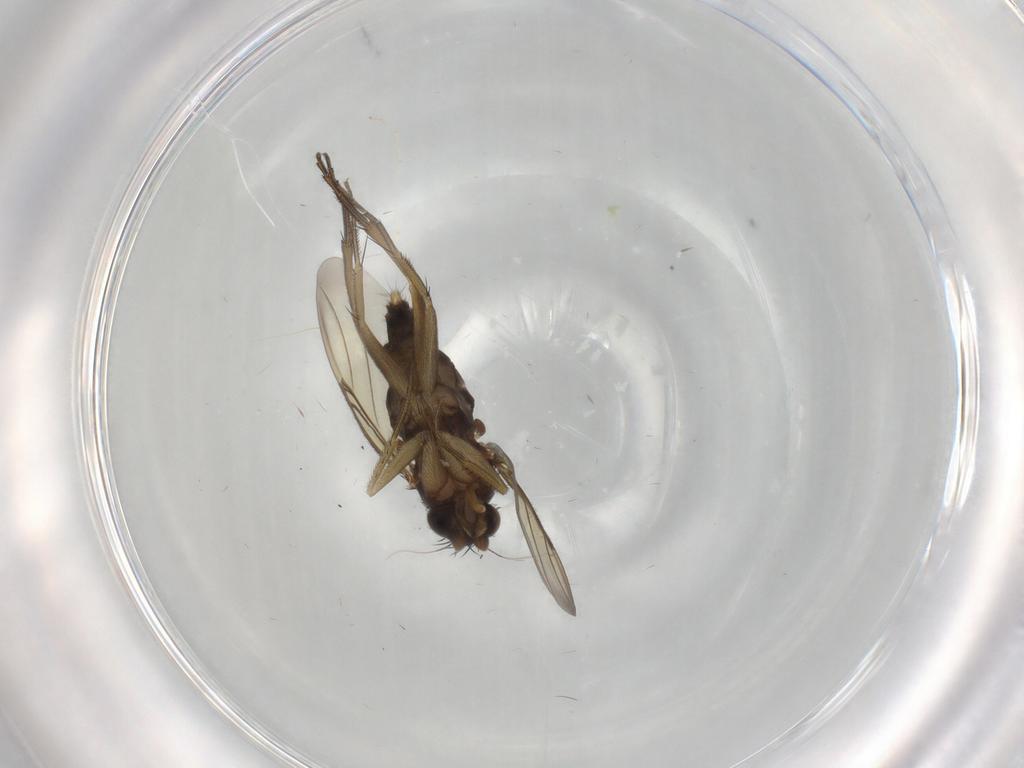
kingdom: Animalia
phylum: Arthropoda
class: Insecta
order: Diptera
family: Phoridae
